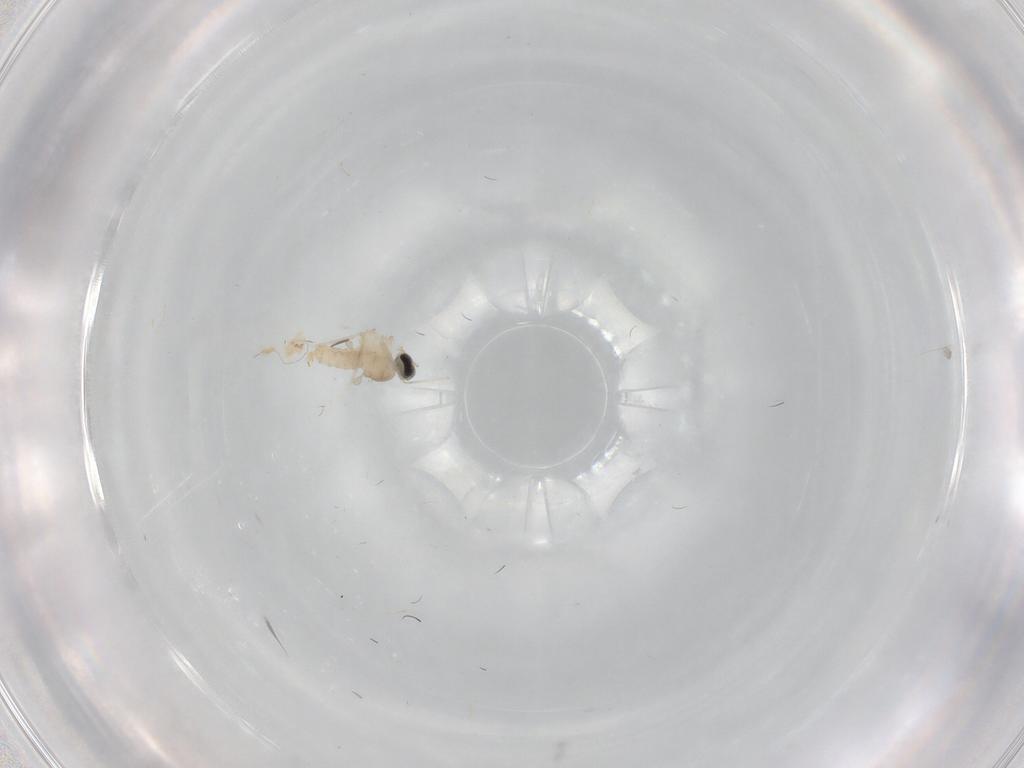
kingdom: Animalia
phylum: Arthropoda
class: Insecta
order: Diptera
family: Cecidomyiidae
